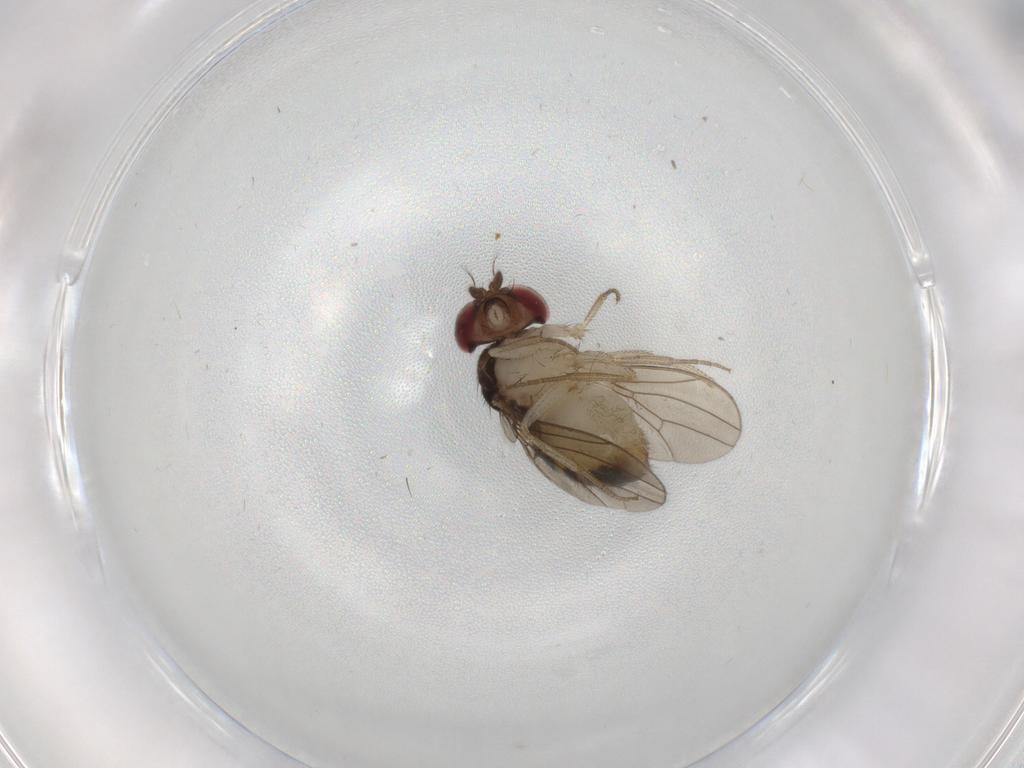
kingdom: Animalia
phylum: Arthropoda
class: Insecta
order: Diptera
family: Drosophilidae
